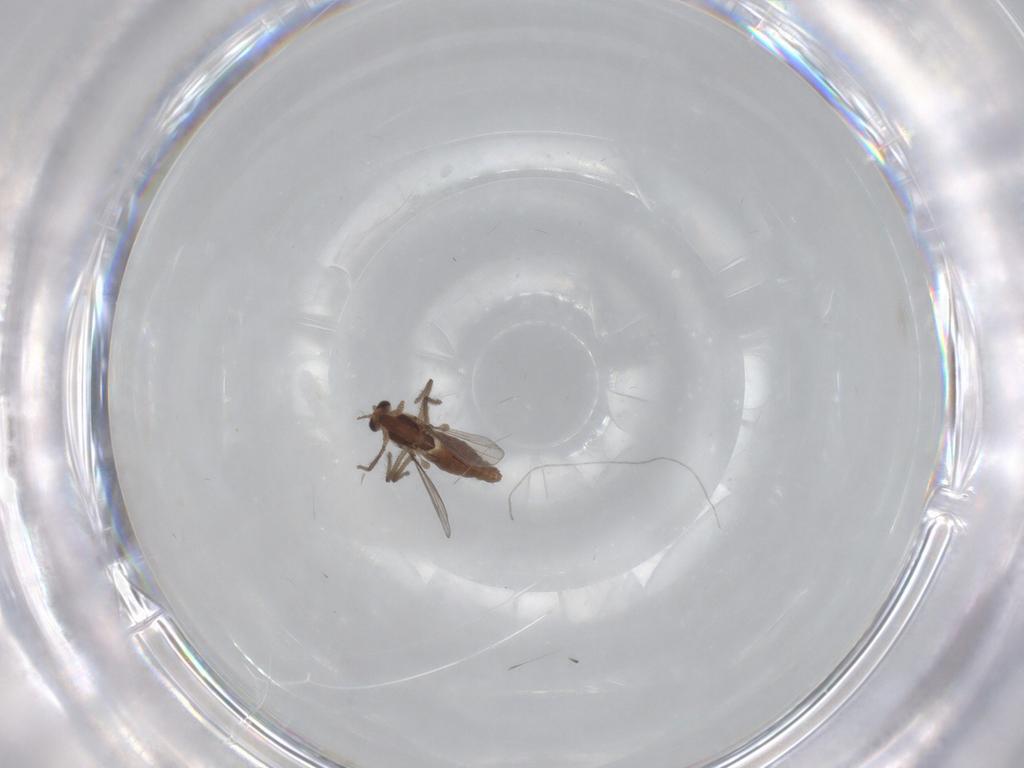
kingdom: Animalia
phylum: Arthropoda
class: Insecta
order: Diptera
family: Chironomidae
